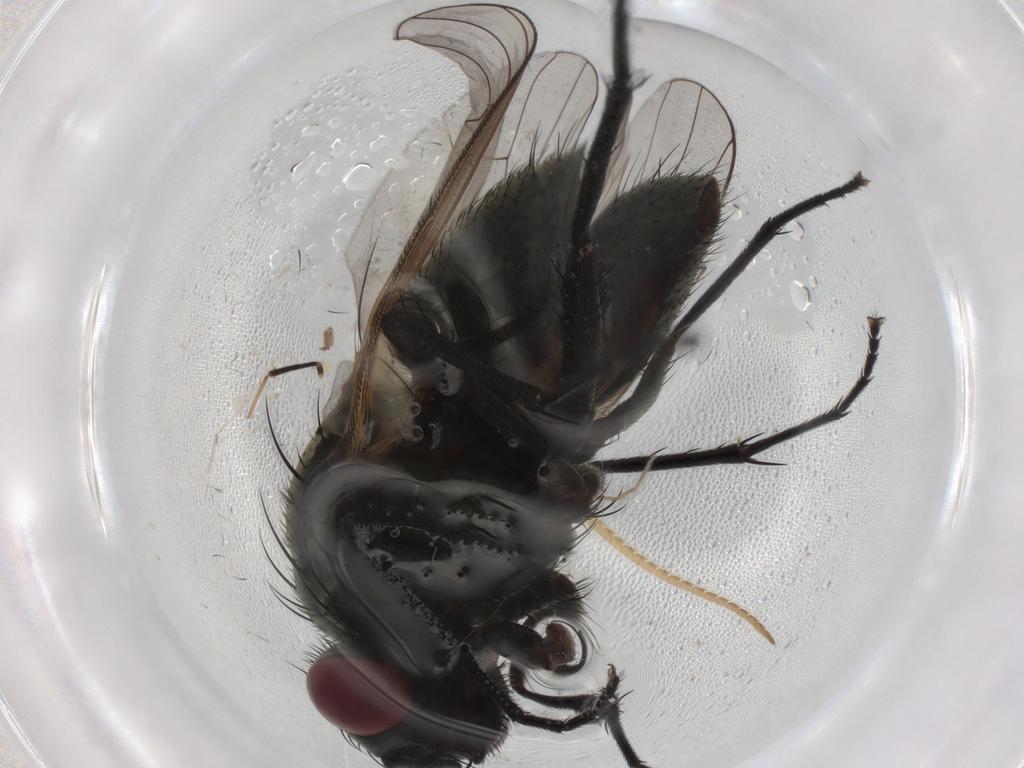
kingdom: Animalia
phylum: Arthropoda
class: Insecta
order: Diptera
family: Muscidae
